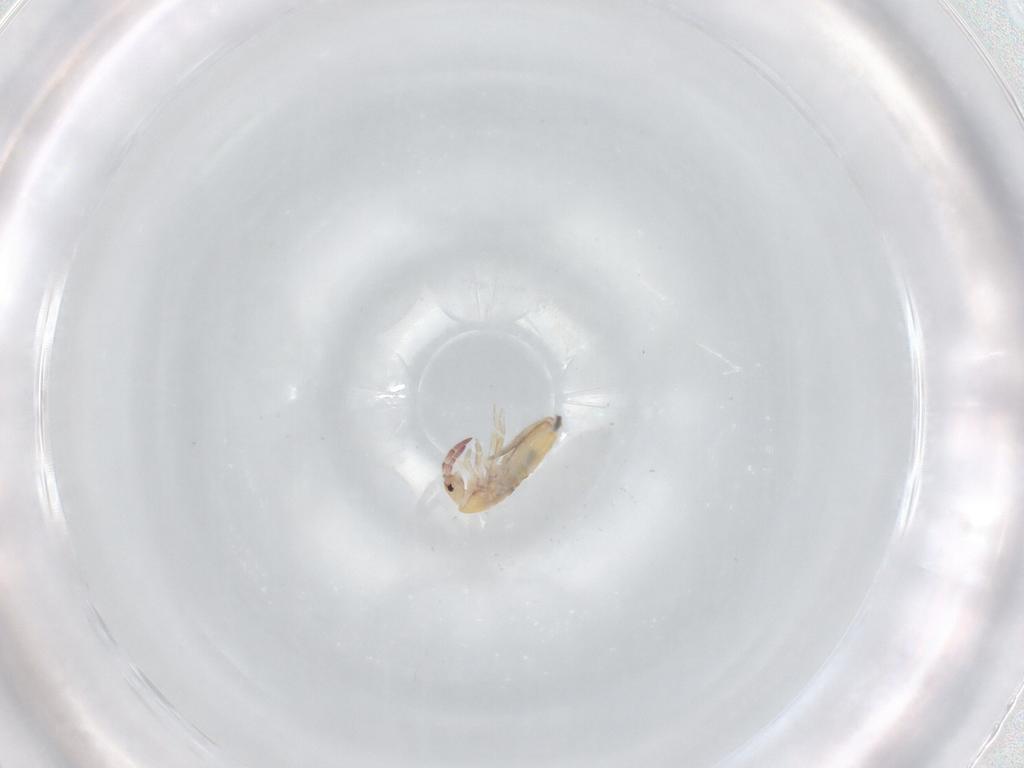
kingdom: Animalia
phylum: Arthropoda
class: Collembola
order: Entomobryomorpha
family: Entomobryidae
